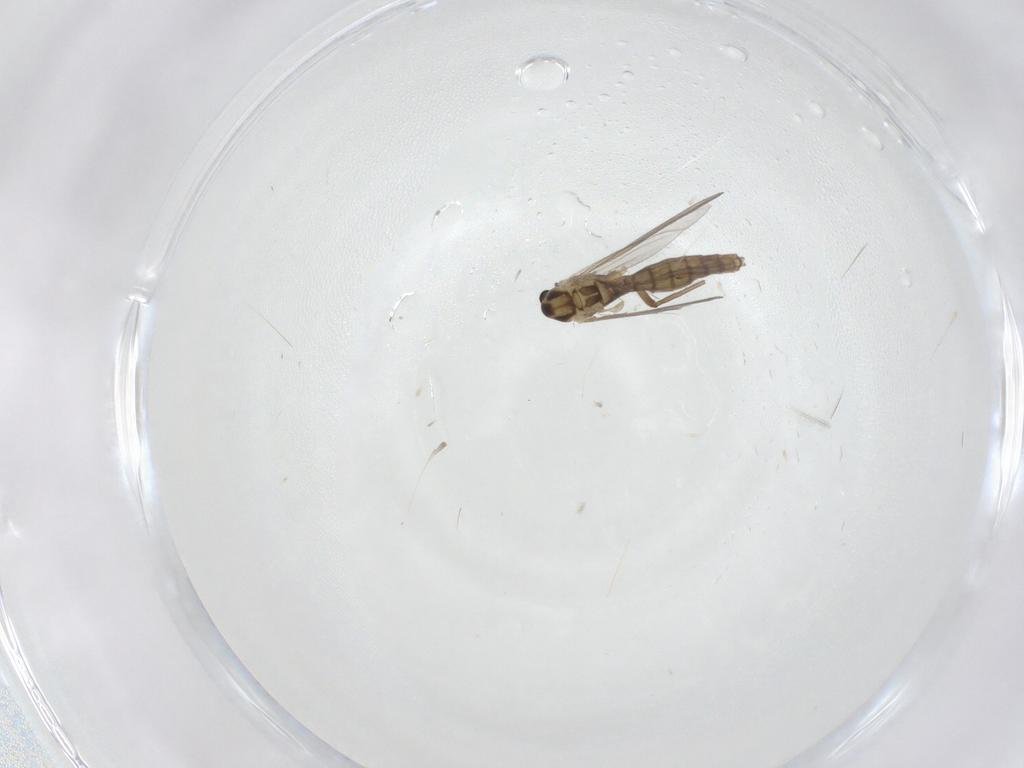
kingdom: Animalia
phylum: Arthropoda
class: Insecta
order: Diptera
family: Chironomidae
